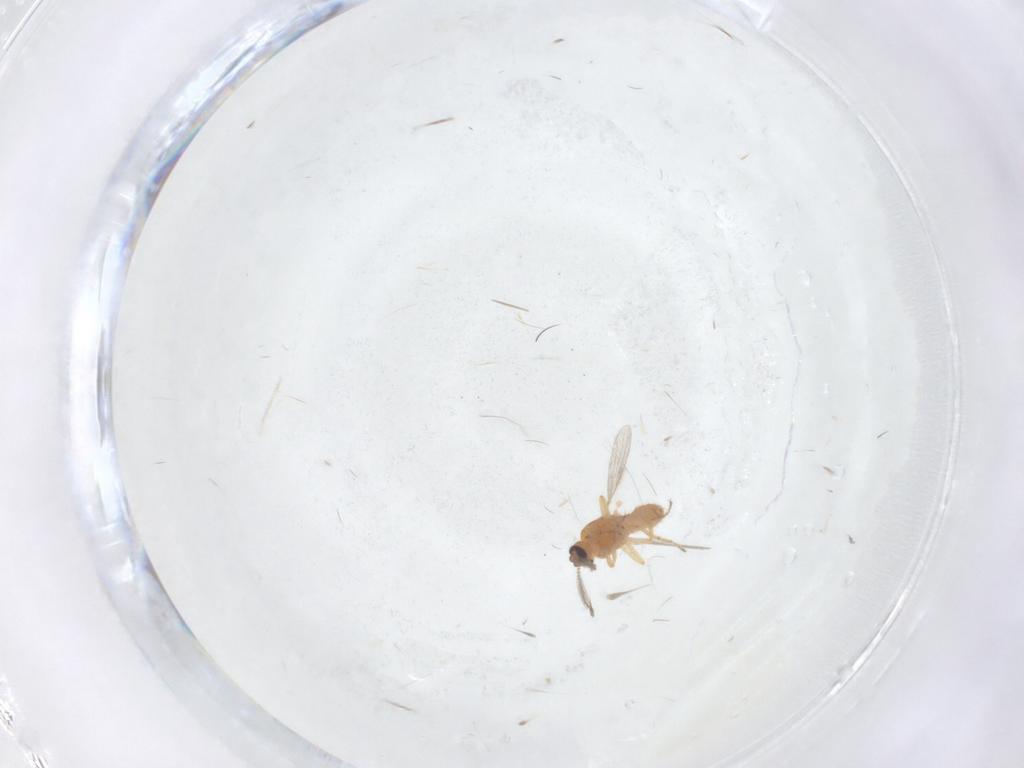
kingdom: Animalia
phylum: Arthropoda
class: Insecta
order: Diptera
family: Ceratopogonidae
